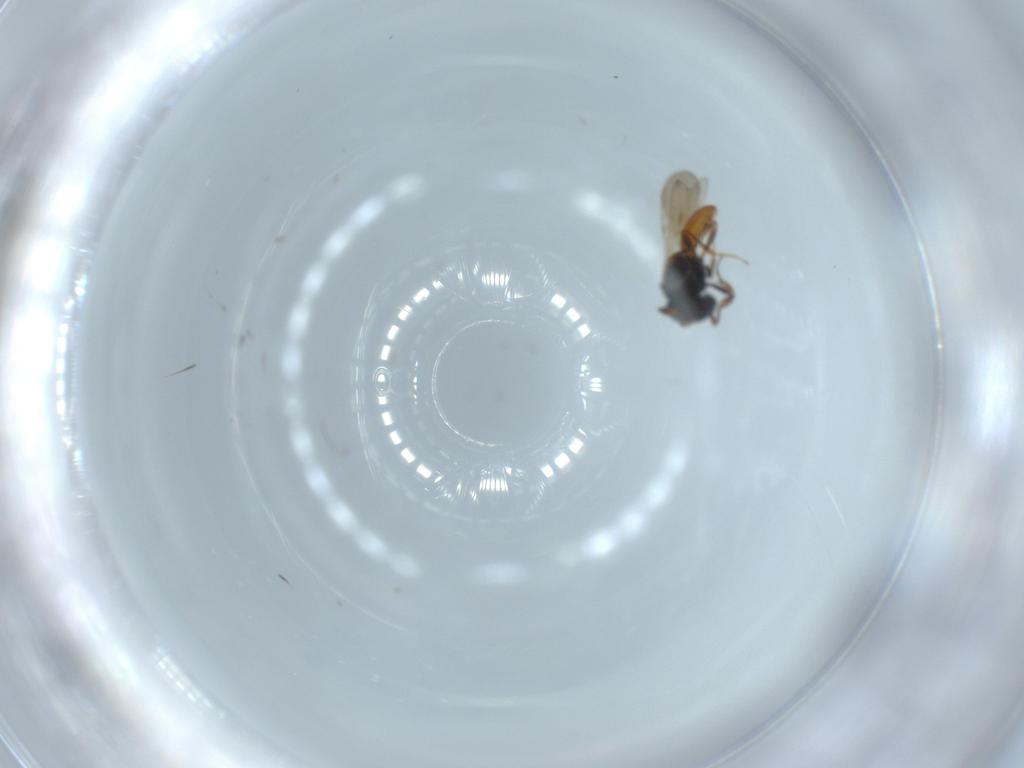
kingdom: Animalia
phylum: Arthropoda
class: Insecta
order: Hymenoptera
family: Scelionidae
